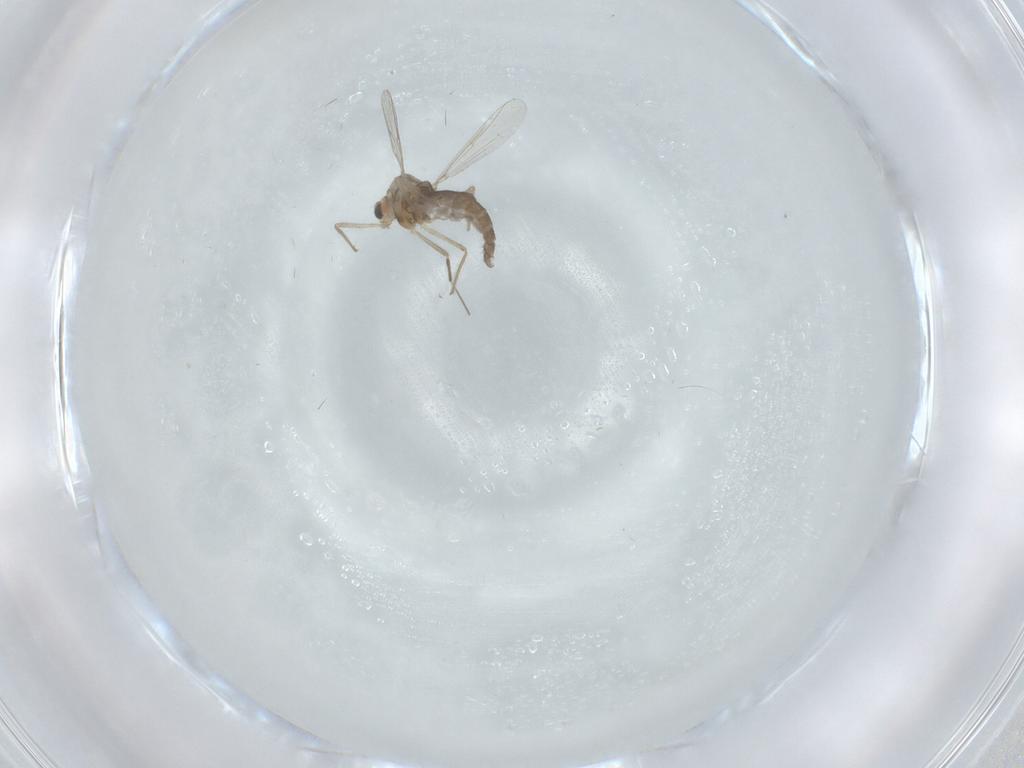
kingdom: Animalia
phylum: Arthropoda
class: Insecta
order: Diptera
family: Chironomidae
